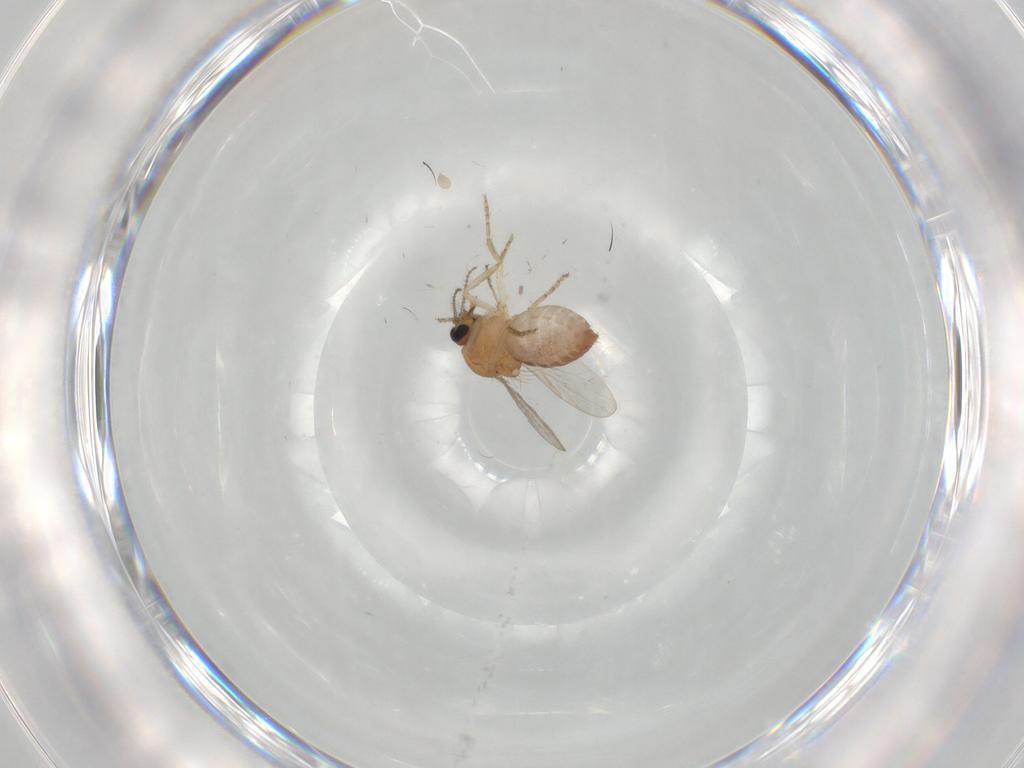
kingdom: Animalia
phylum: Arthropoda
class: Insecta
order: Diptera
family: Ceratopogonidae
